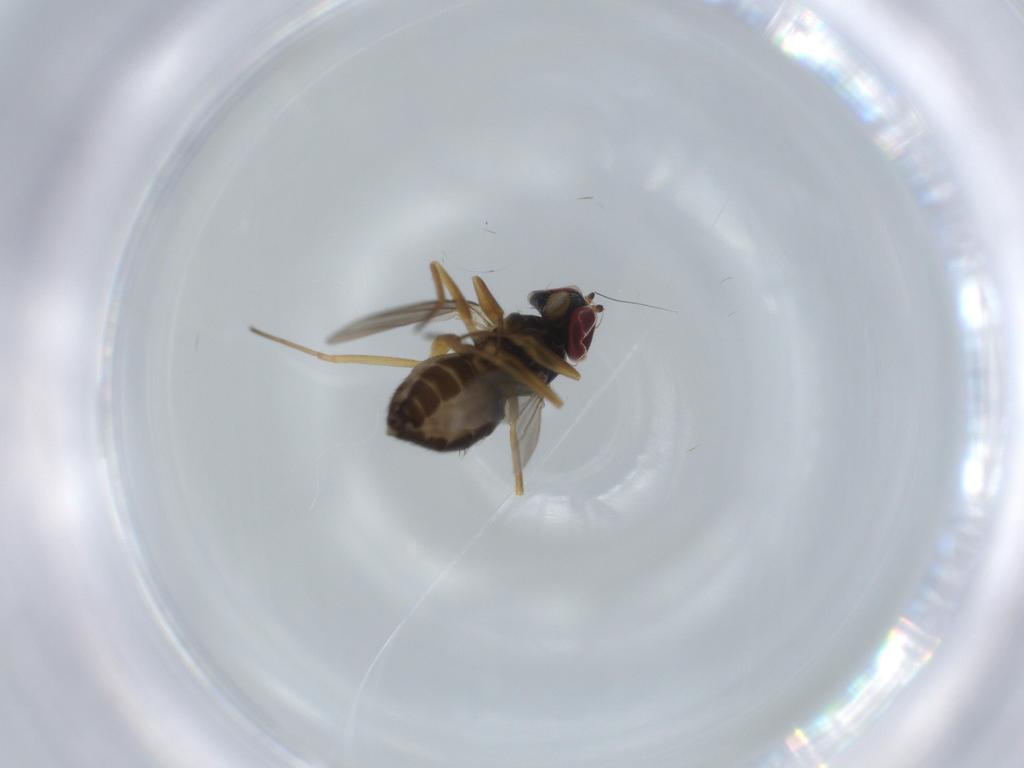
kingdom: Animalia
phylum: Arthropoda
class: Insecta
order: Diptera
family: Dolichopodidae
